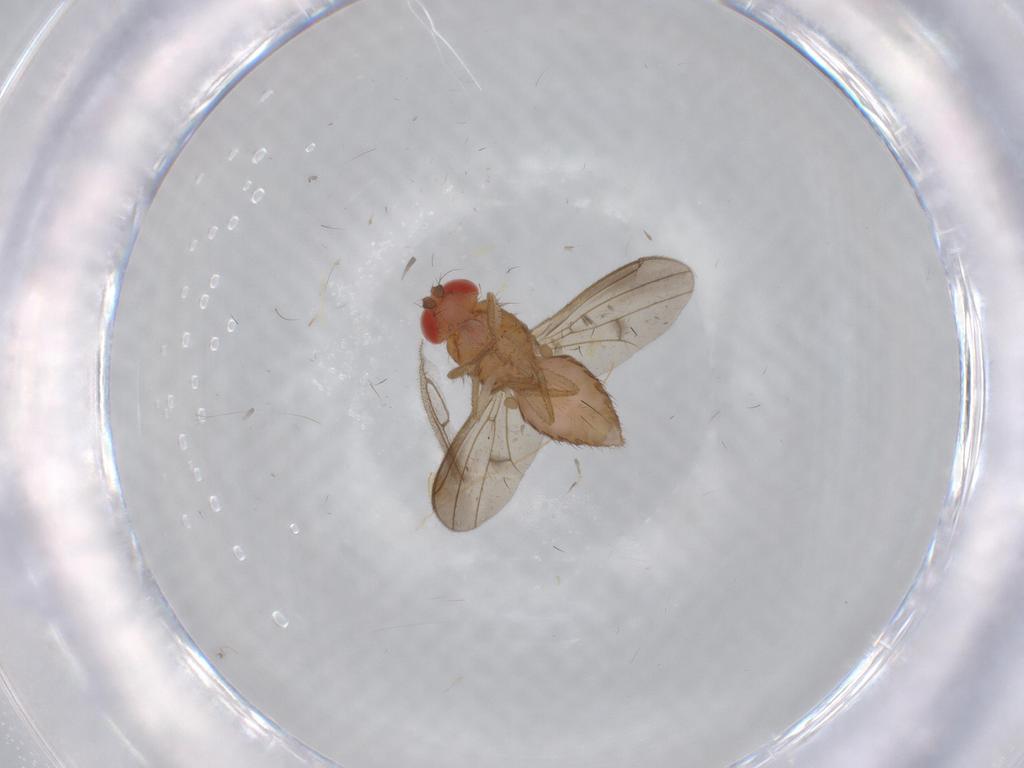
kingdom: Animalia
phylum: Arthropoda
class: Insecta
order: Diptera
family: Drosophilidae
